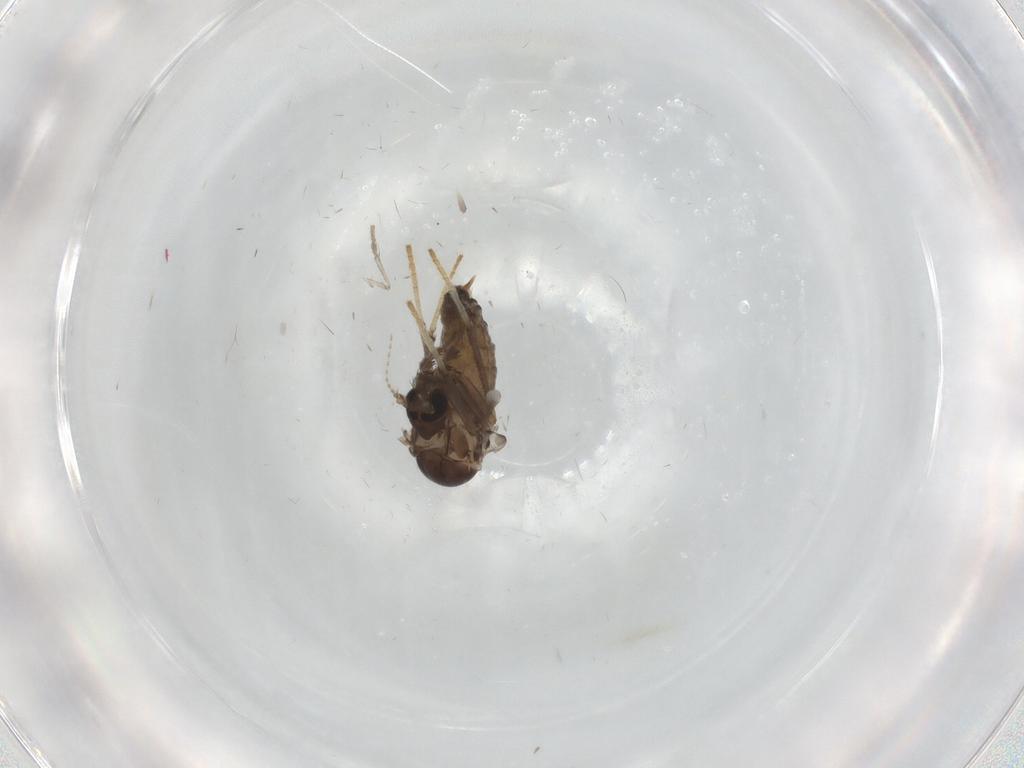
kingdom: Animalia
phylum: Arthropoda
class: Insecta
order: Diptera
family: Psychodidae
